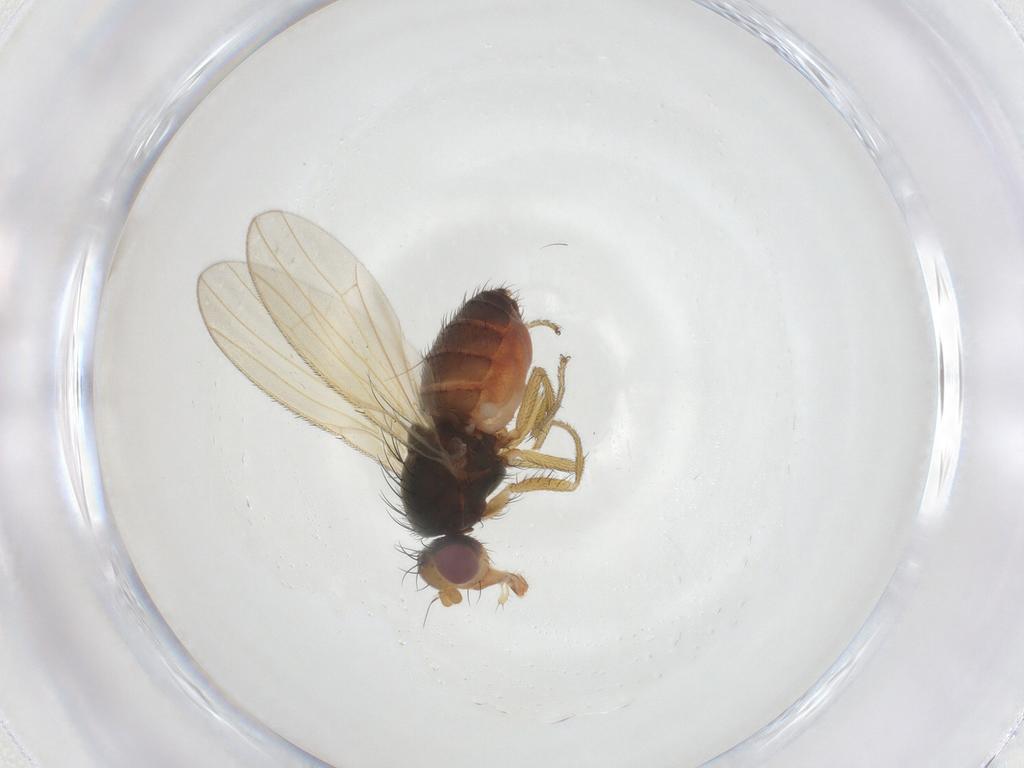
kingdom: Animalia
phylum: Arthropoda
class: Insecta
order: Diptera
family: Heleomyzidae
